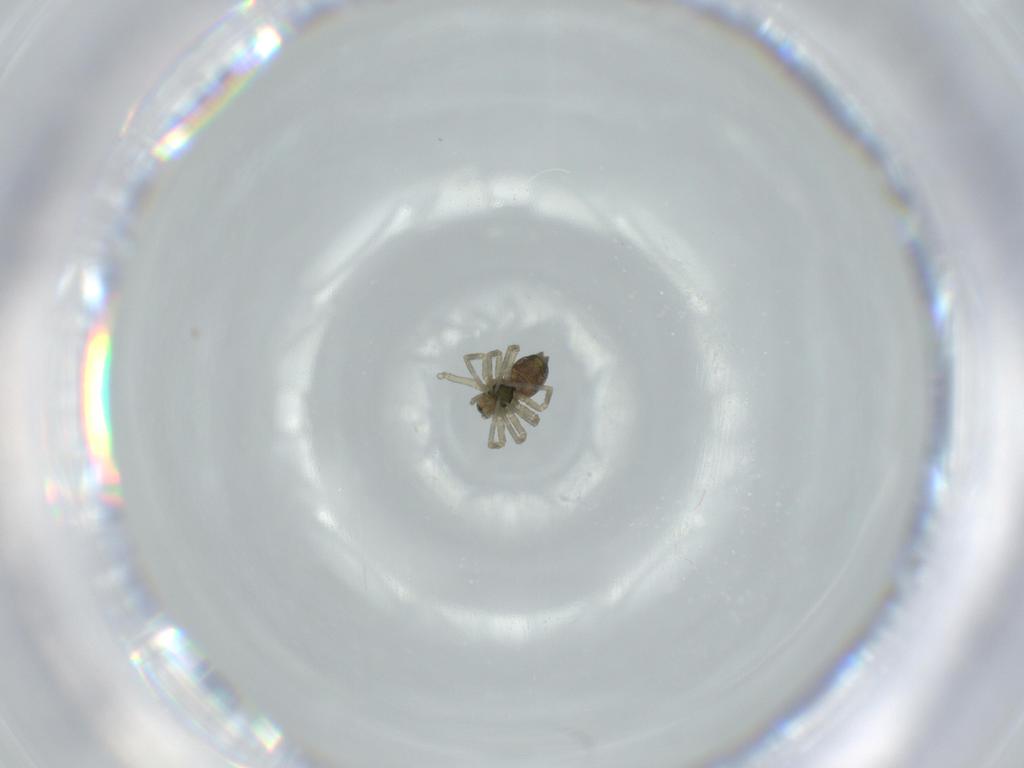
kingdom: Animalia
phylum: Arthropoda
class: Arachnida
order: Araneae
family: Linyphiidae
